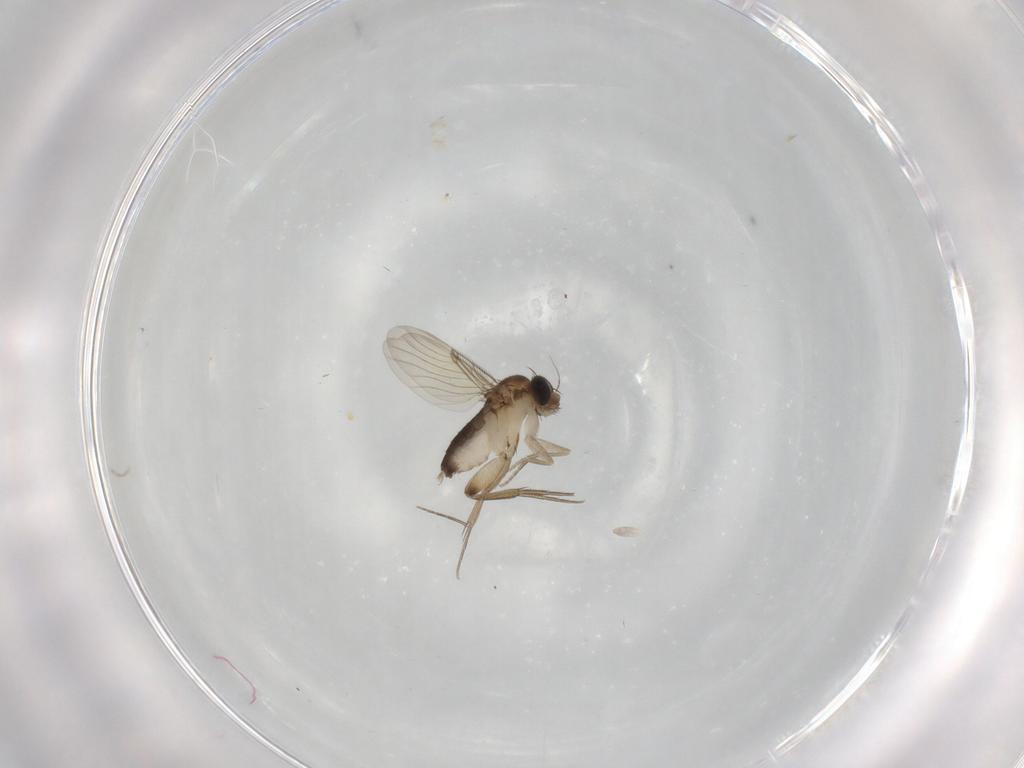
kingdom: Animalia
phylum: Arthropoda
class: Insecta
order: Diptera
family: Phoridae
